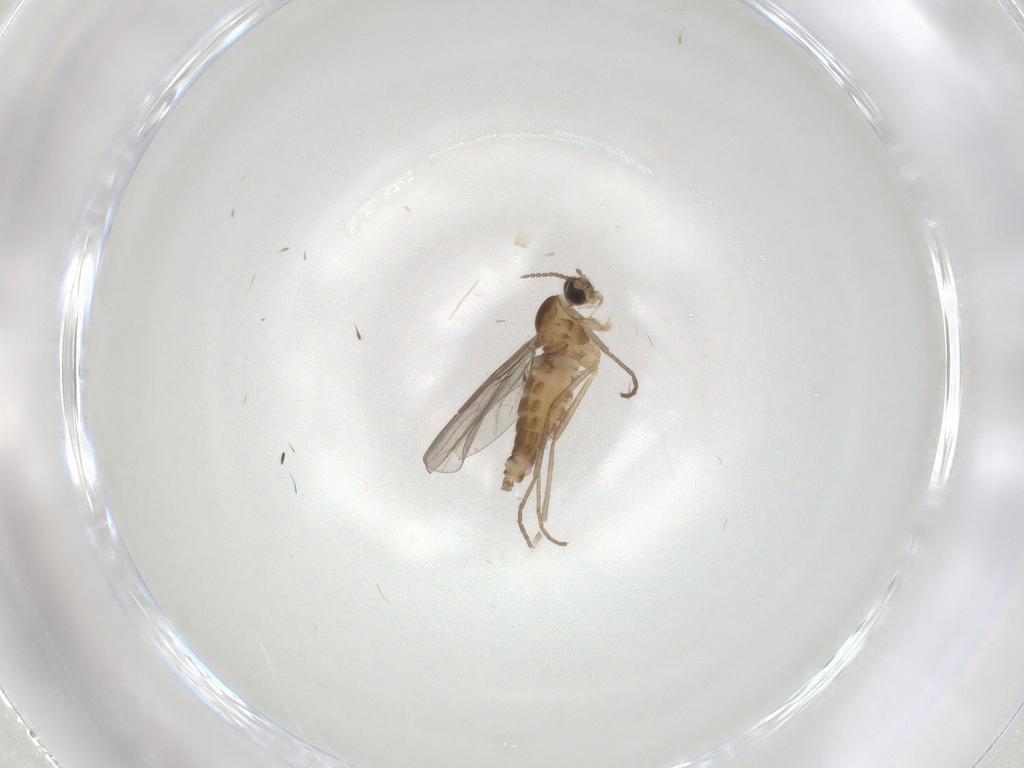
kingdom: Animalia
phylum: Arthropoda
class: Insecta
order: Diptera
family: Cecidomyiidae
